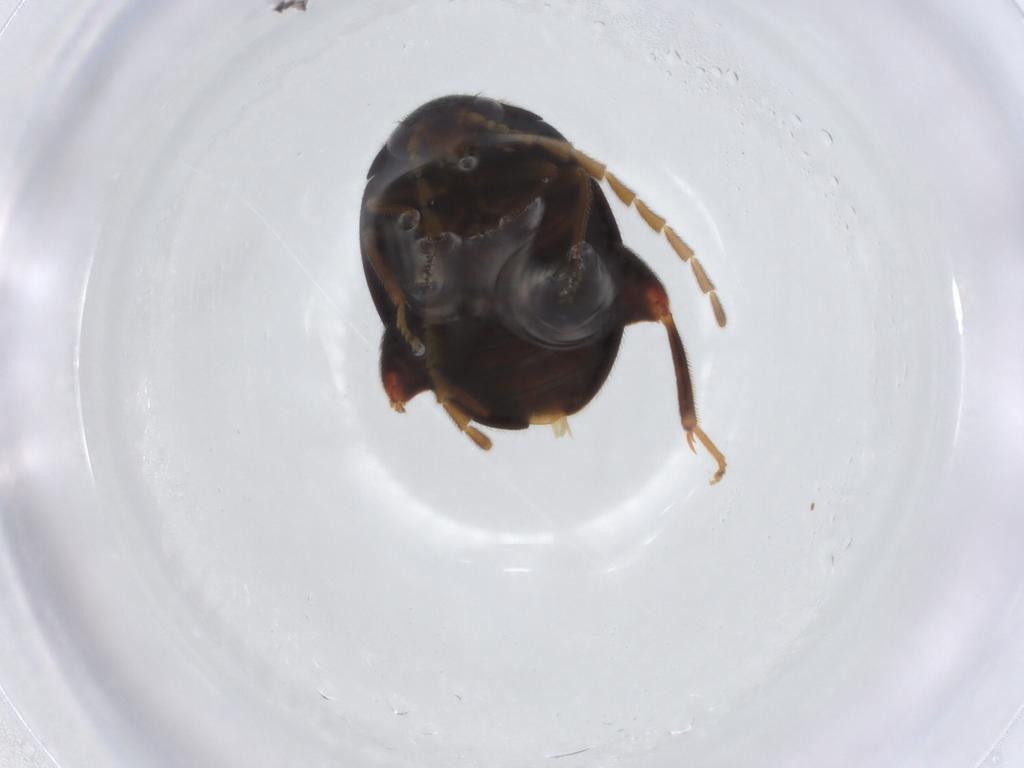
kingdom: Animalia
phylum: Arthropoda
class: Insecta
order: Coleoptera
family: Scirtidae
